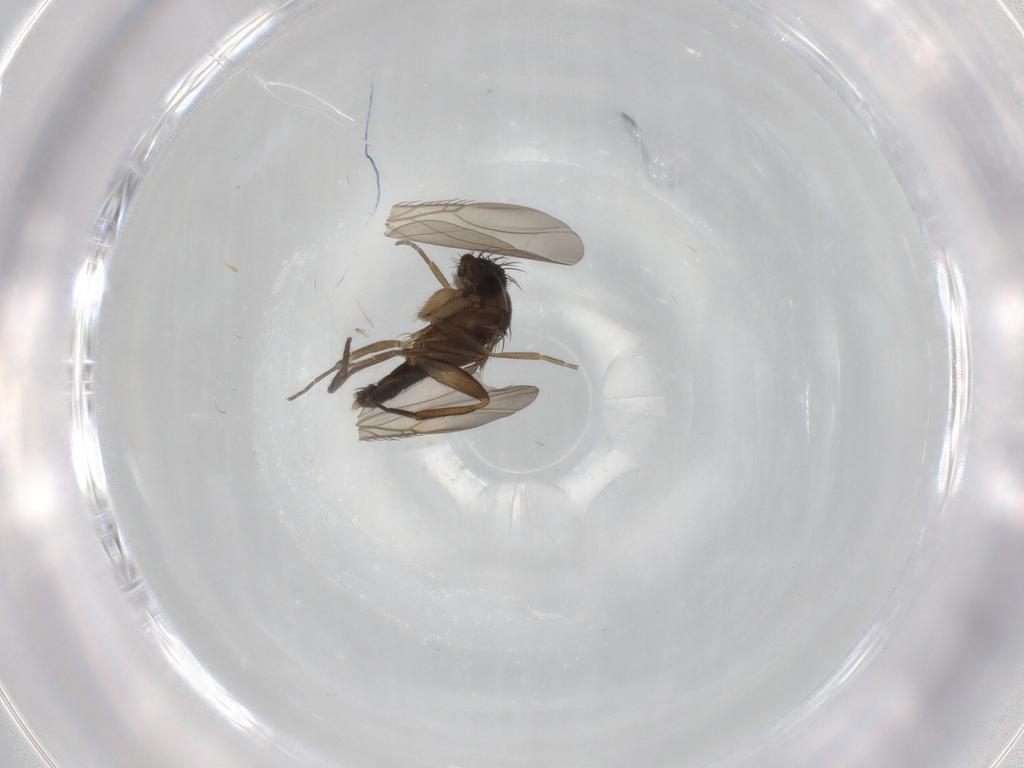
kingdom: Animalia
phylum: Arthropoda
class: Insecta
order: Diptera
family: Phoridae
